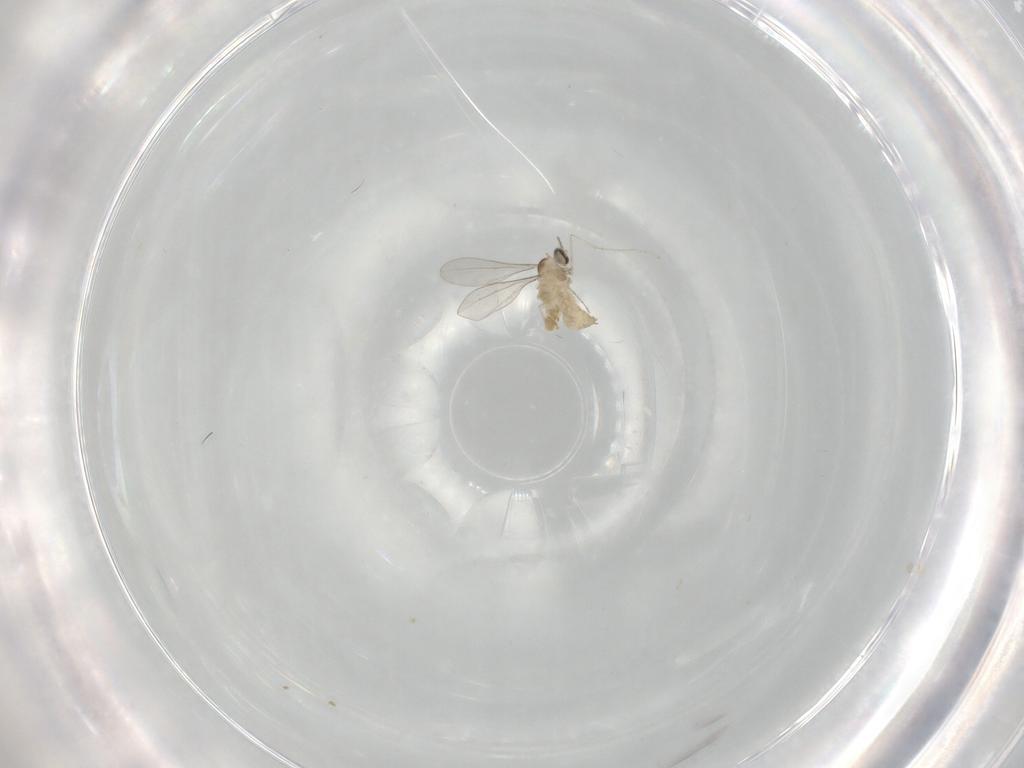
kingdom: Animalia
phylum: Arthropoda
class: Insecta
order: Diptera
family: Cecidomyiidae
